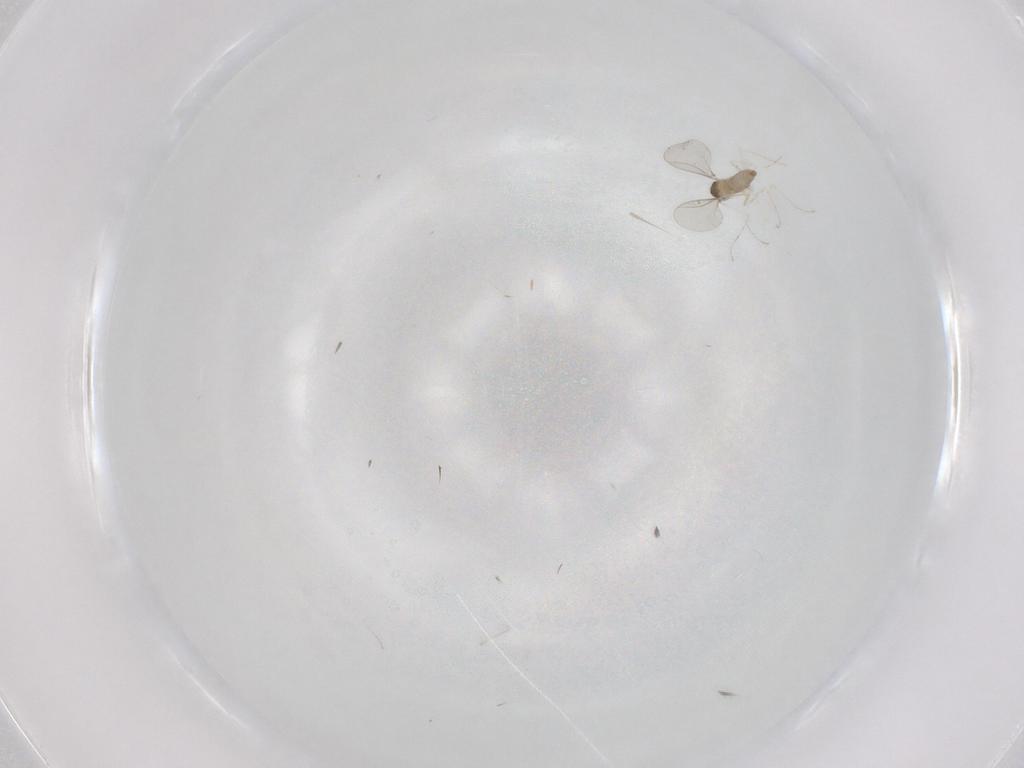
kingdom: Animalia
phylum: Arthropoda
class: Insecta
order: Diptera
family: Cecidomyiidae
